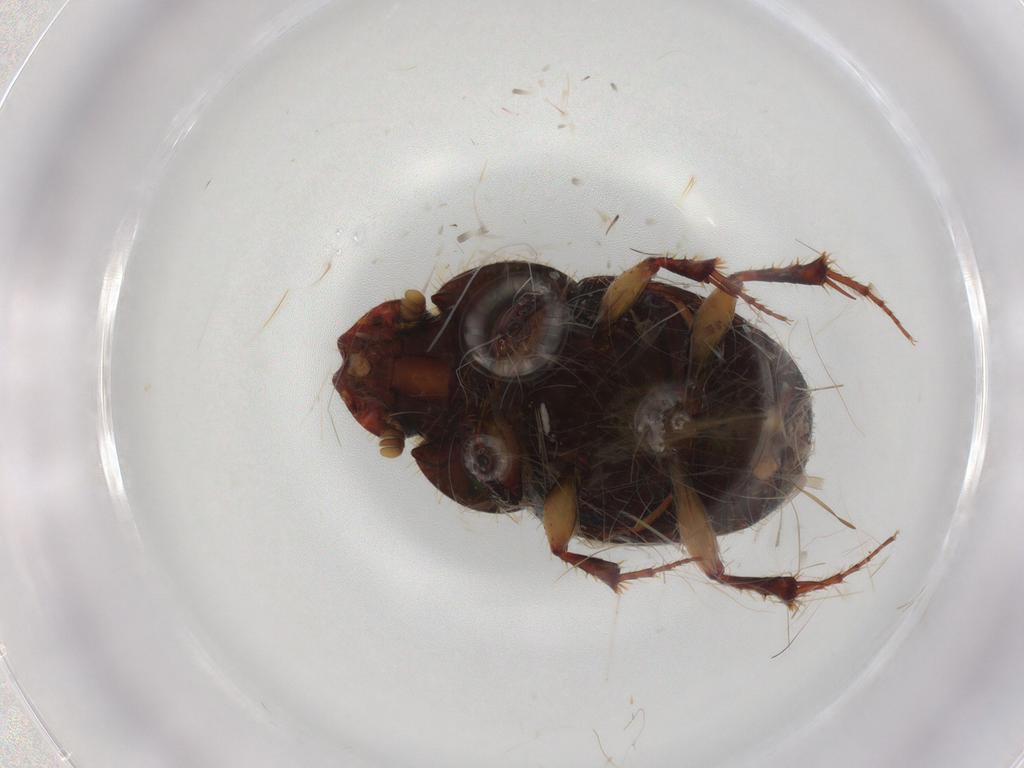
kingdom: Animalia
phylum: Arthropoda
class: Insecta
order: Coleoptera
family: Scarabaeidae
